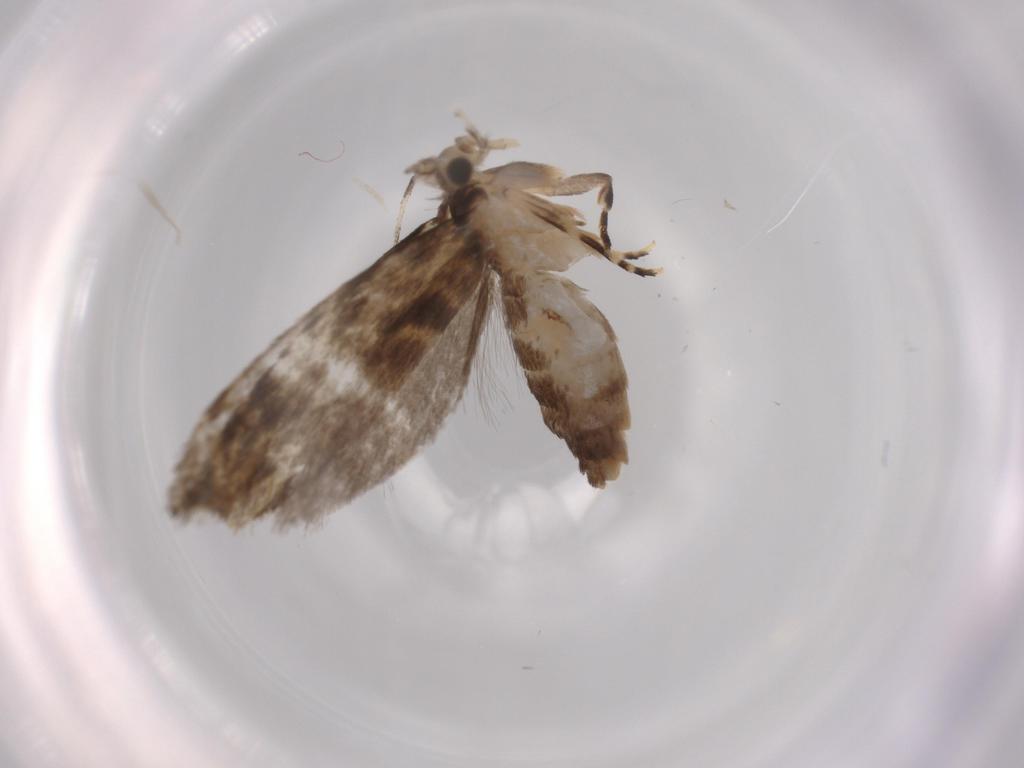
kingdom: Animalia
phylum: Arthropoda
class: Insecta
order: Lepidoptera
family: Tineidae
